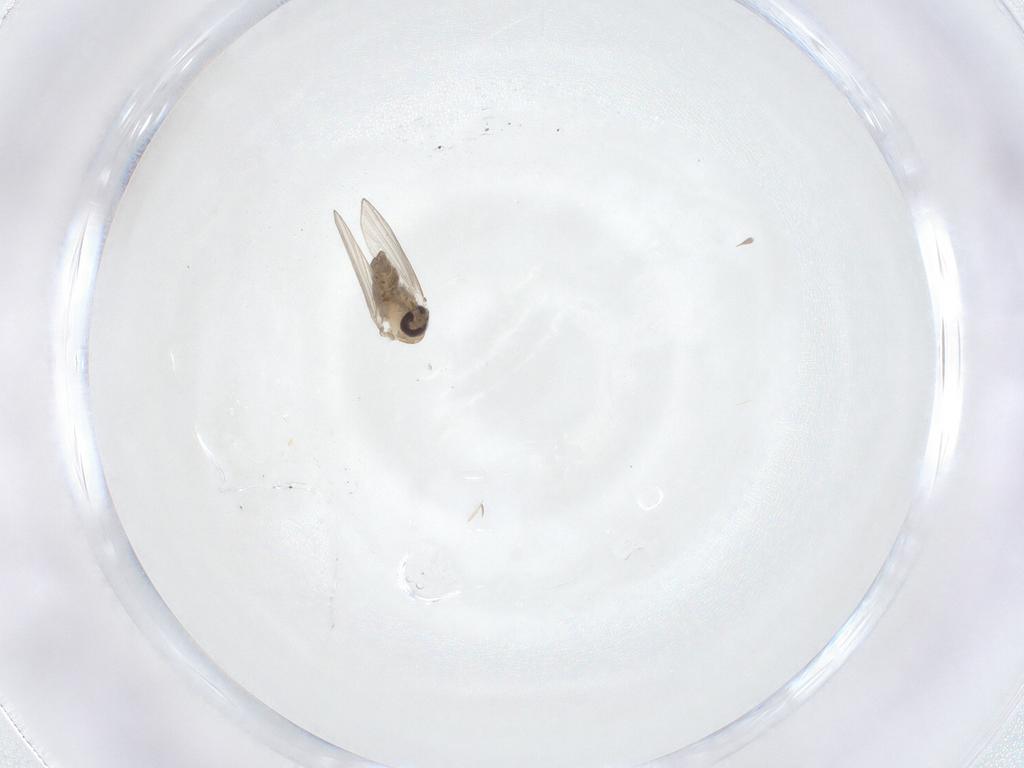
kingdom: Animalia
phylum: Arthropoda
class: Insecta
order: Diptera
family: Psychodidae
